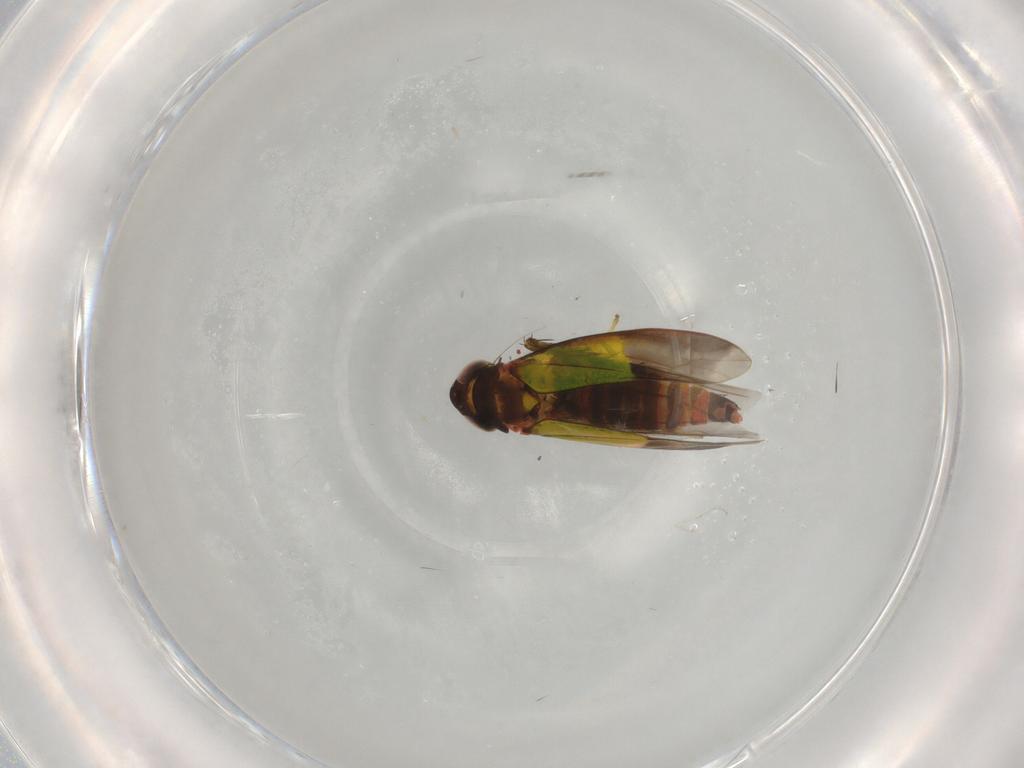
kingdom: Animalia
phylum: Arthropoda
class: Insecta
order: Hemiptera
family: Cicadellidae
